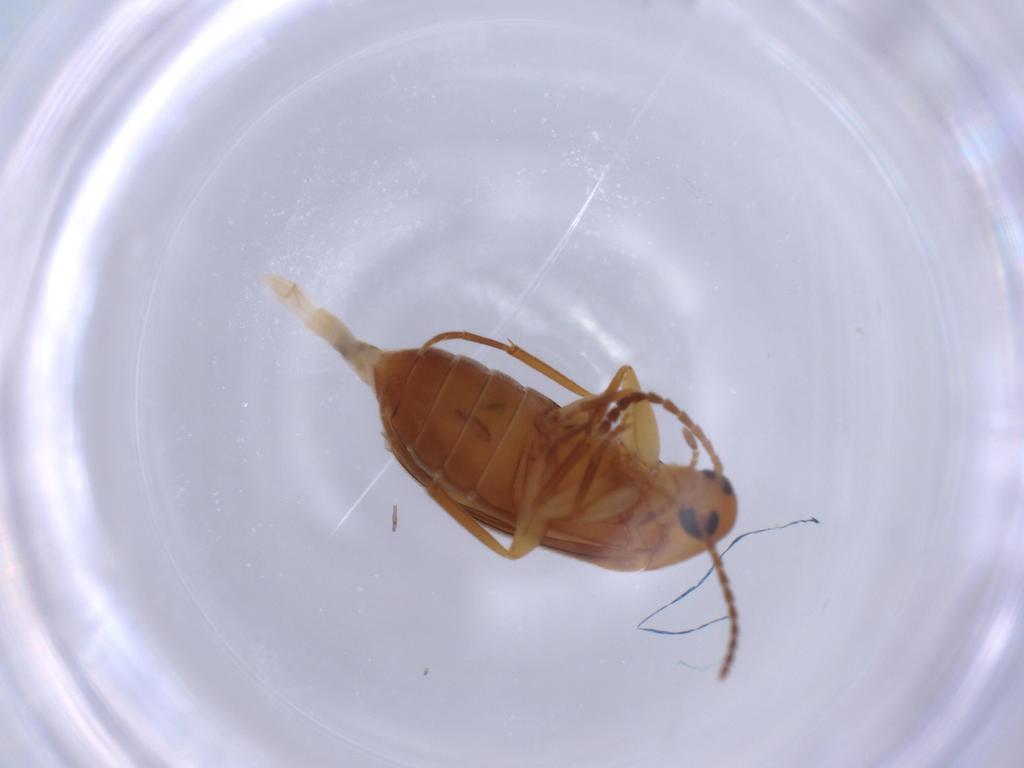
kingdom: Animalia
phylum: Arthropoda
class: Insecta
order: Coleoptera
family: Scraptiidae
